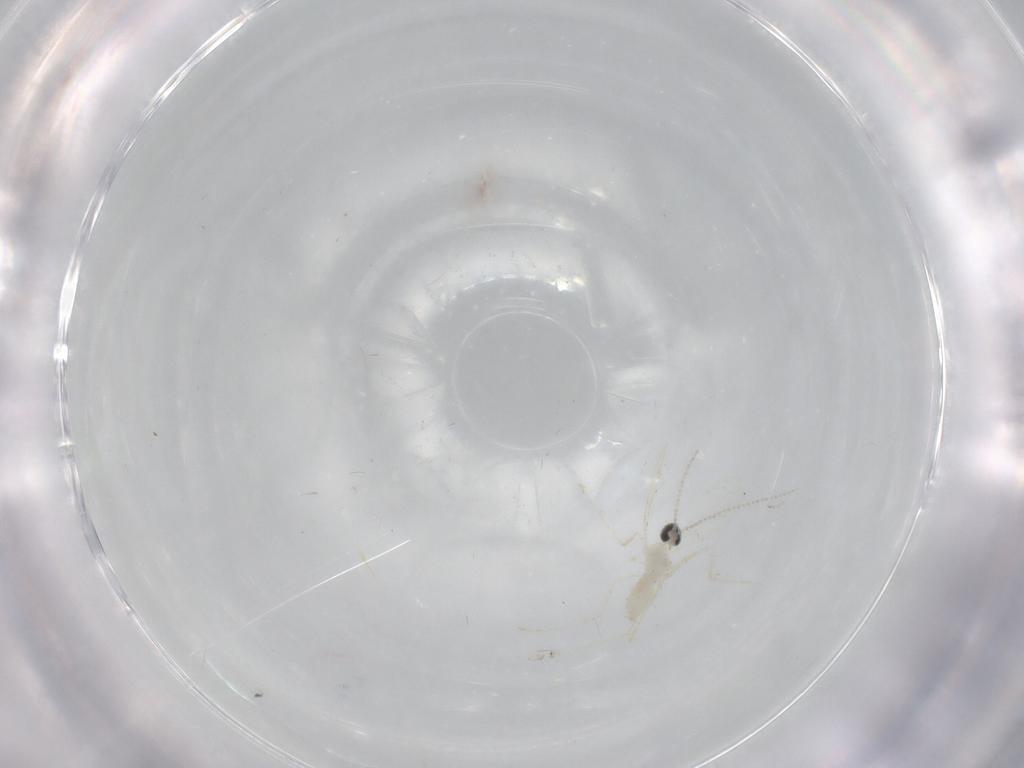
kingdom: Animalia
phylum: Arthropoda
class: Insecta
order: Diptera
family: Cecidomyiidae
